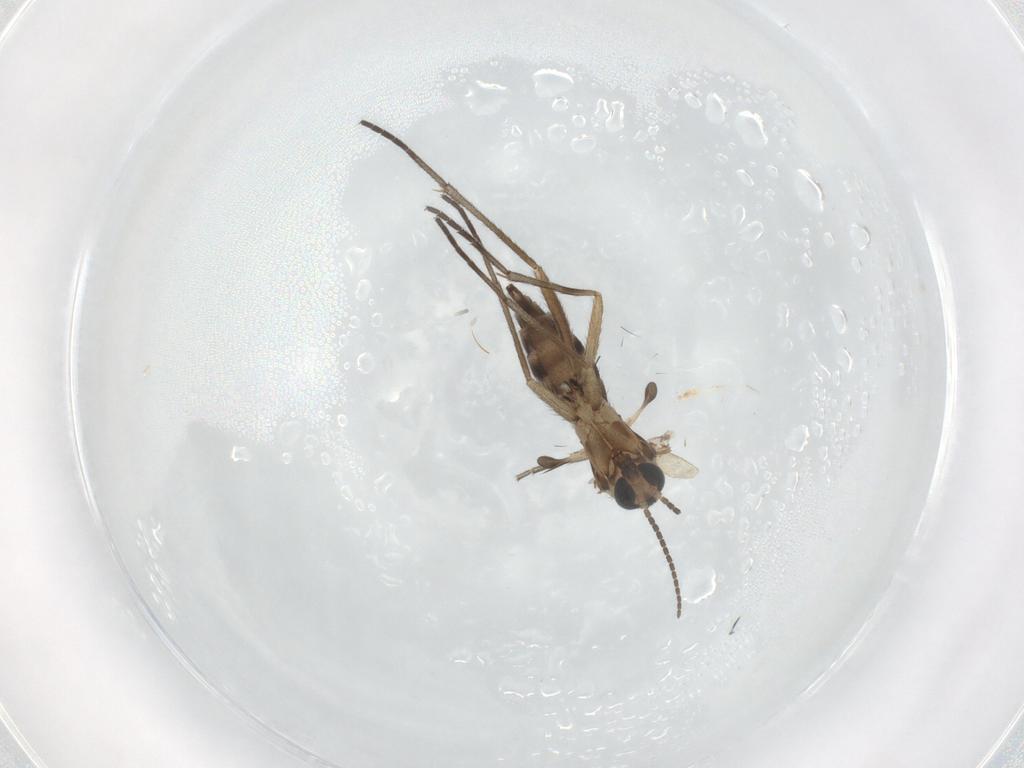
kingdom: Animalia
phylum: Arthropoda
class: Insecta
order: Diptera
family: Sciaridae
